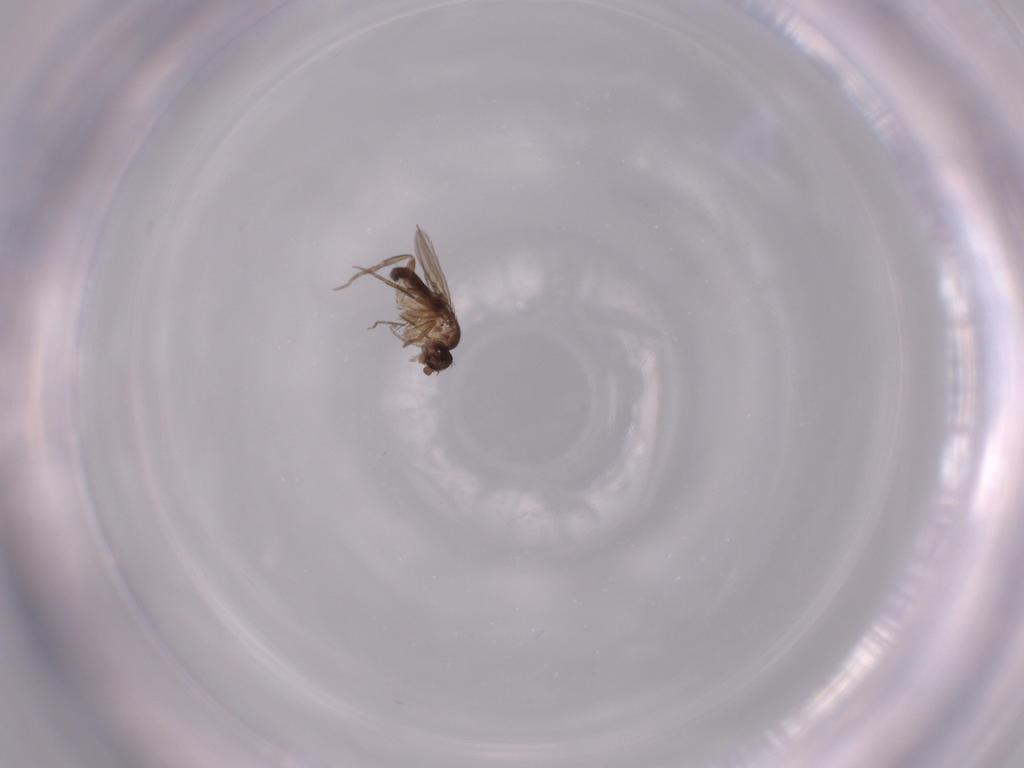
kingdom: Animalia
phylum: Arthropoda
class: Insecta
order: Diptera
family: Phoridae
